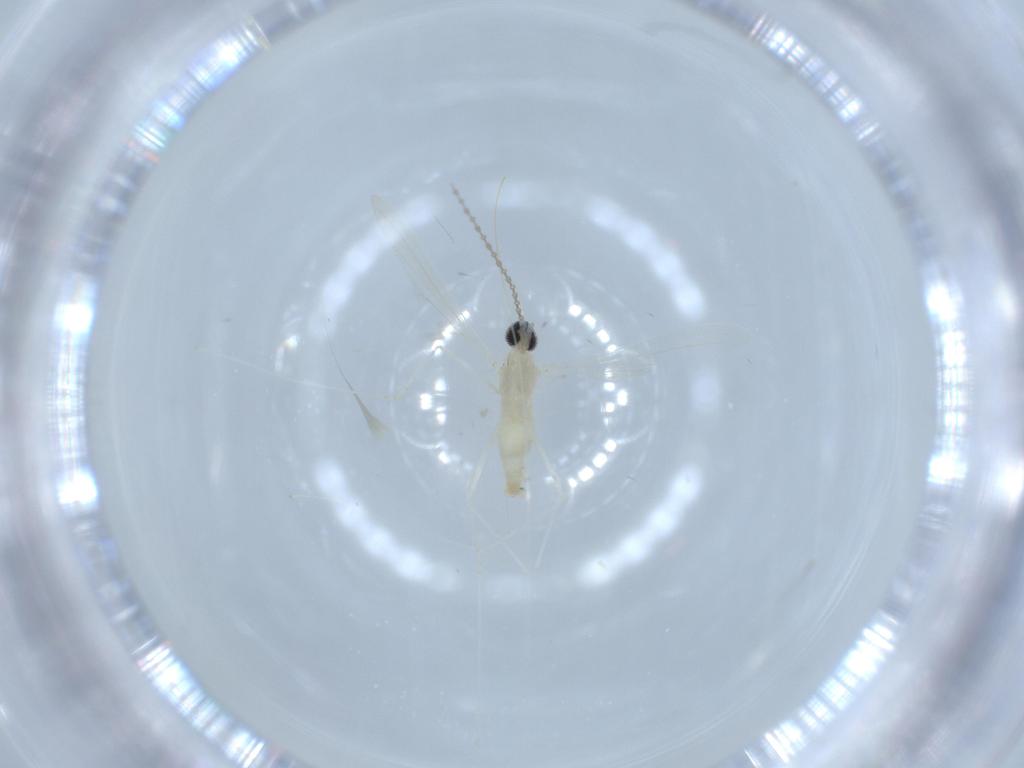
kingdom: Animalia
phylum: Arthropoda
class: Insecta
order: Diptera
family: Cecidomyiidae
